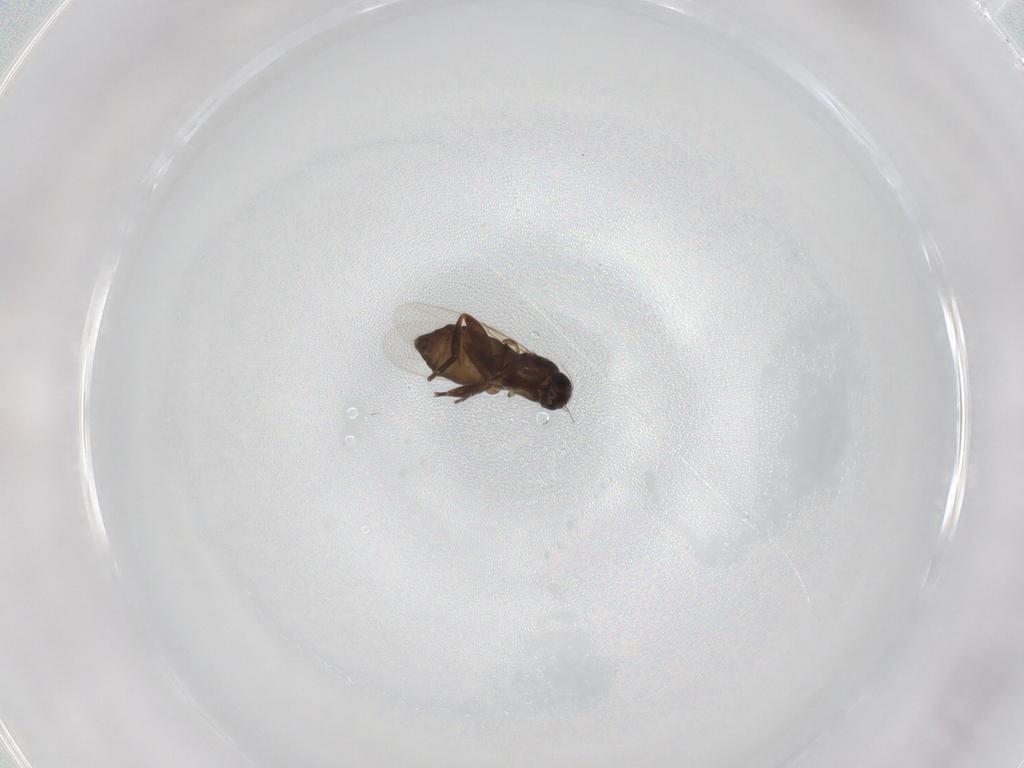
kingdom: Animalia
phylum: Arthropoda
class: Insecta
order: Diptera
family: Phoridae
